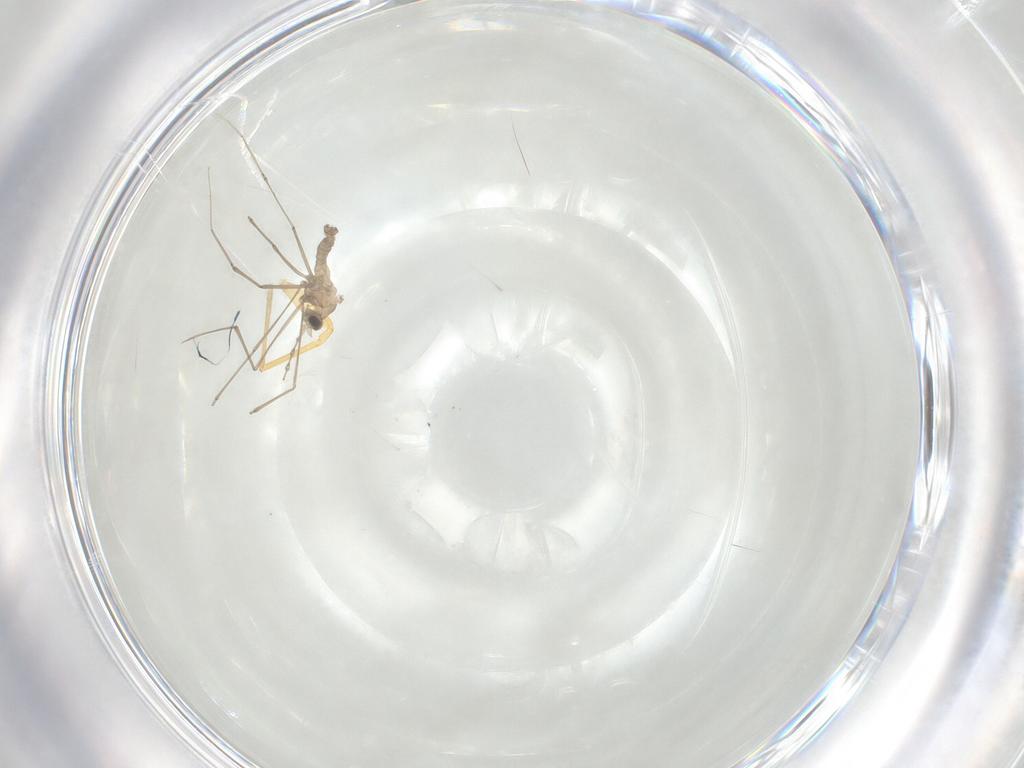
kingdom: Animalia
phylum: Arthropoda
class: Insecta
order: Diptera
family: Cecidomyiidae
